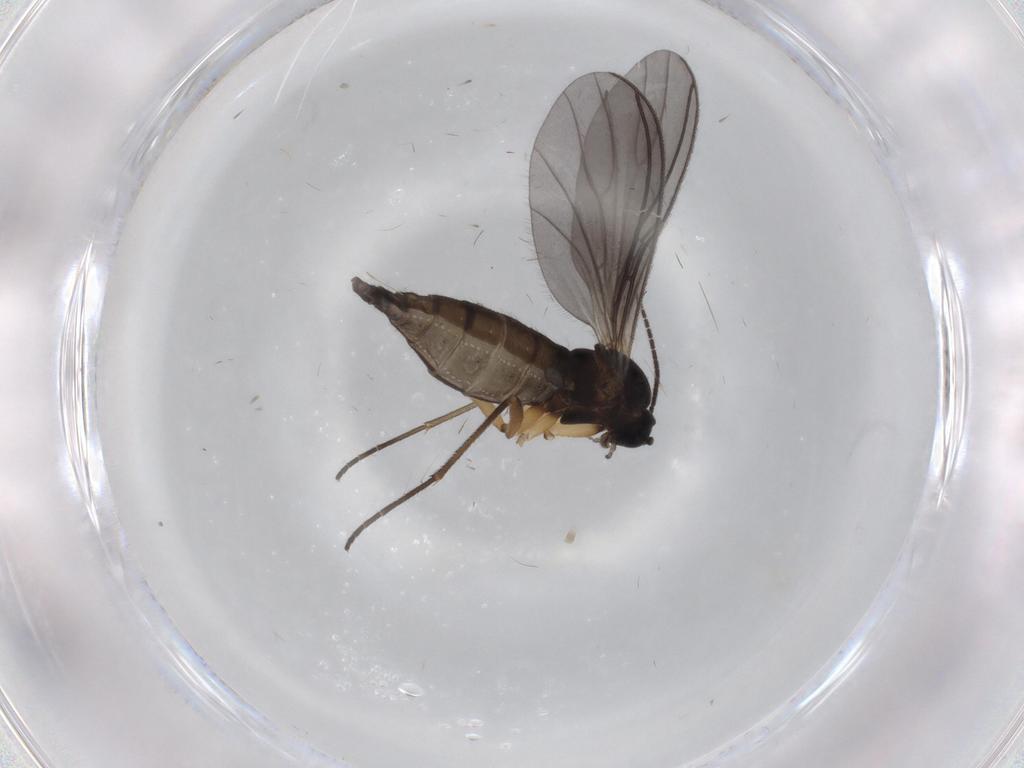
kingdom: Animalia
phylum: Arthropoda
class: Insecta
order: Diptera
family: Sciaridae
